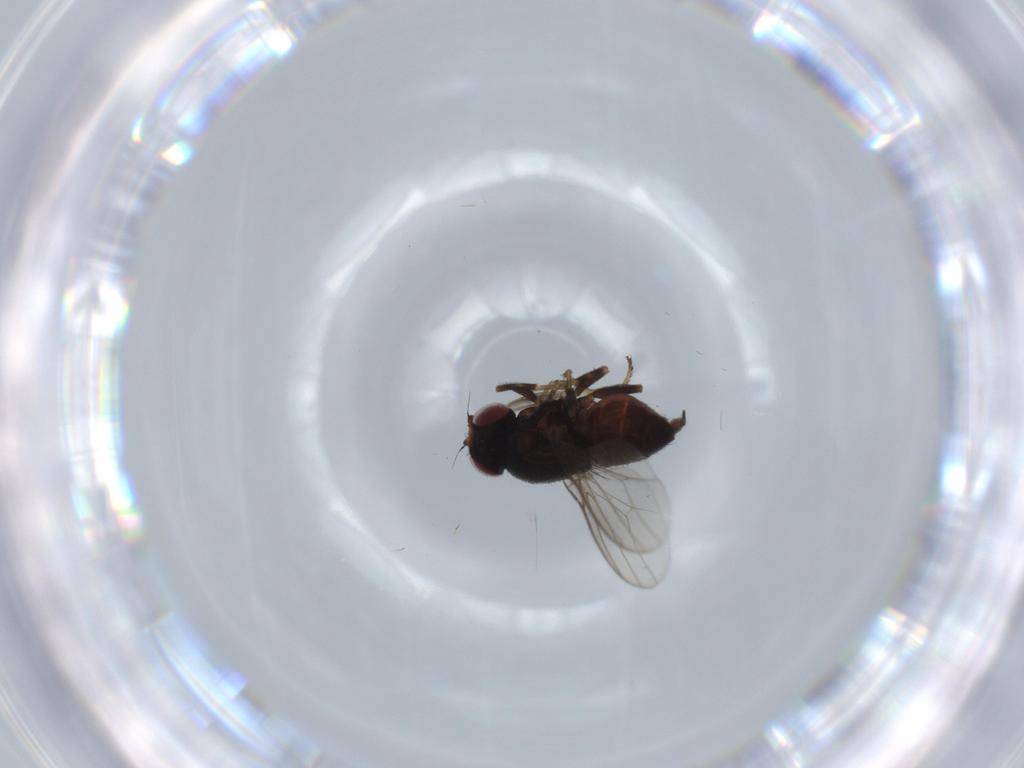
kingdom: Animalia
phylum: Arthropoda
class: Insecta
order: Diptera
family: Chloropidae
